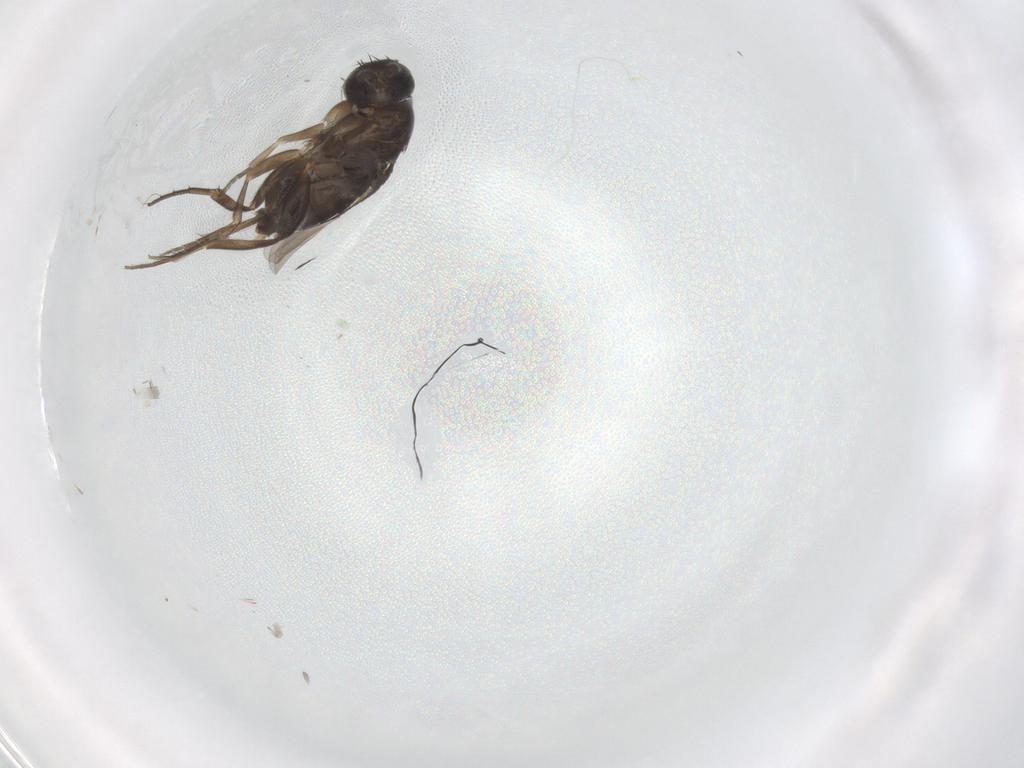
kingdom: Animalia
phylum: Arthropoda
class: Insecta
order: Diptera
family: Phoridae
